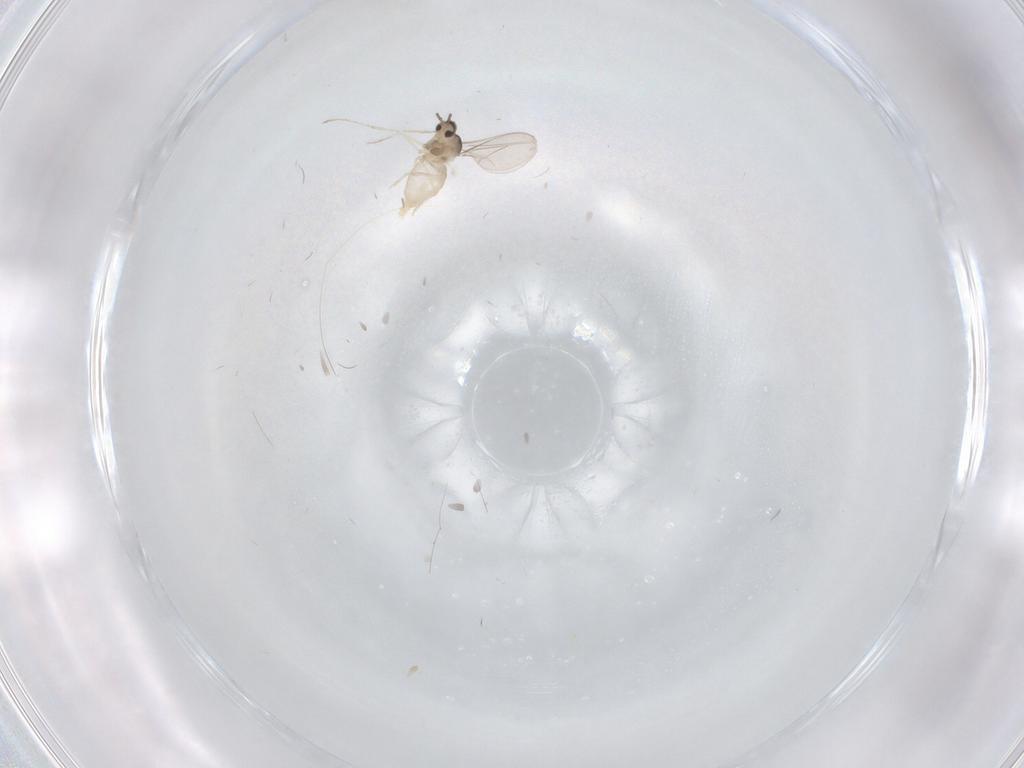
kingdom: Animalia
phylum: Arthropoda
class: Insecta
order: Diptera
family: Cecidomyiidae
